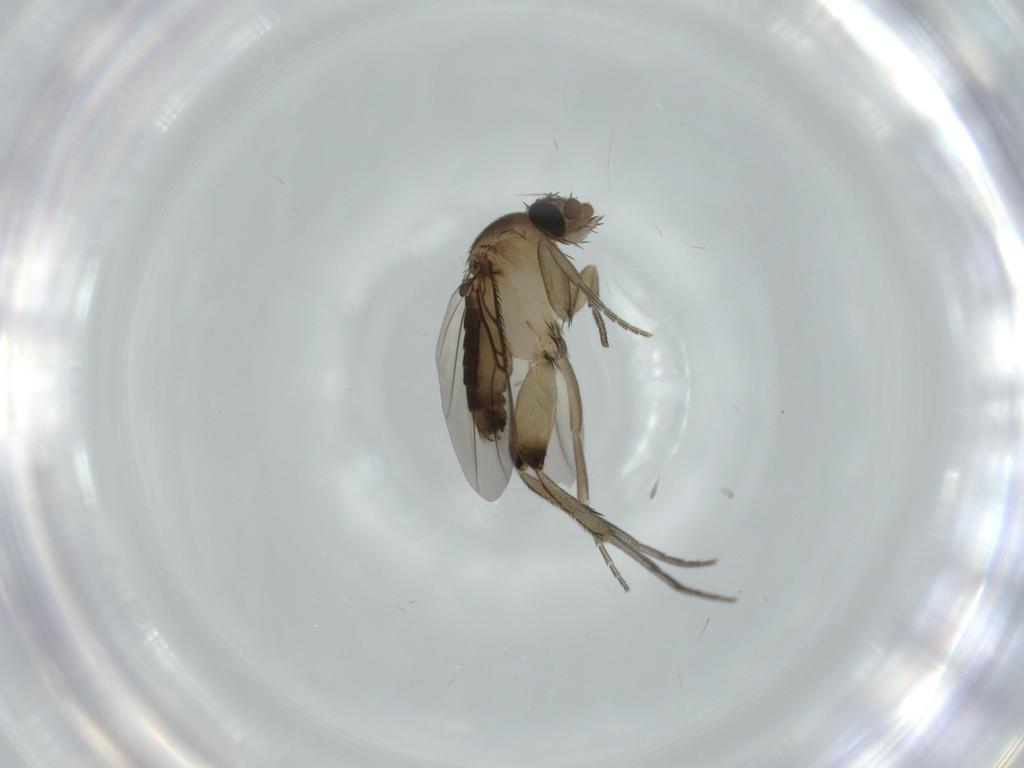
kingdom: Animalia
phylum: Arthropoda
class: Insecta
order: Diptera
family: Phoridae
